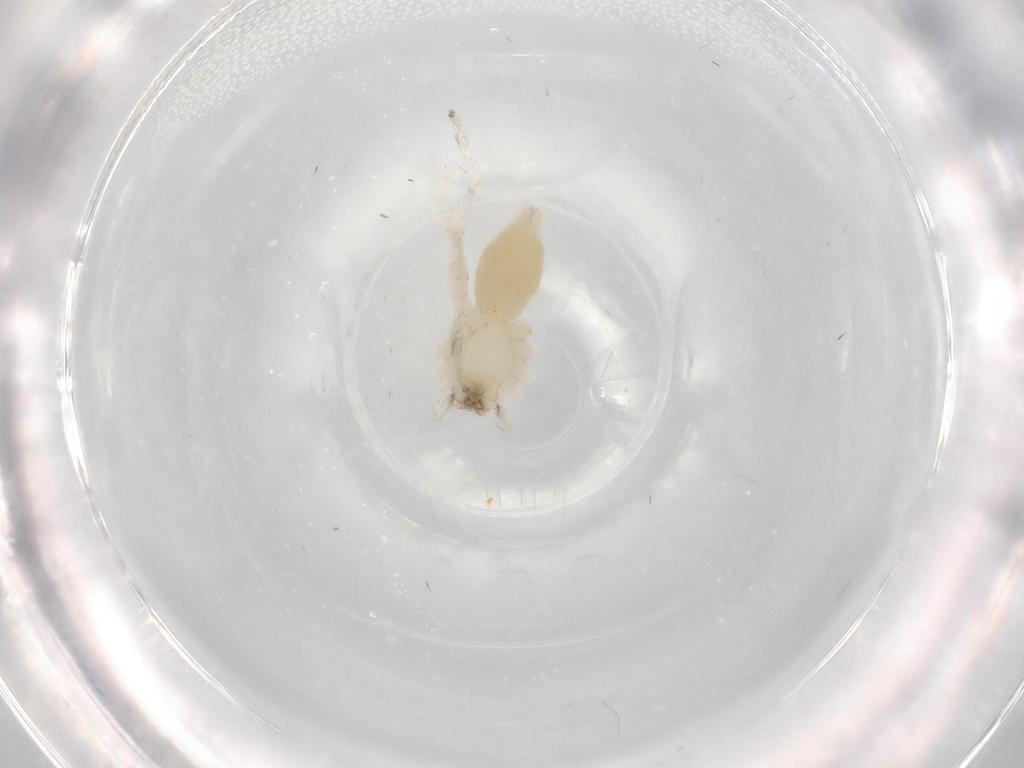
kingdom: Animalia
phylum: Arthropoda
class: Arachnida
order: Araneae
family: Anyphaenidae
